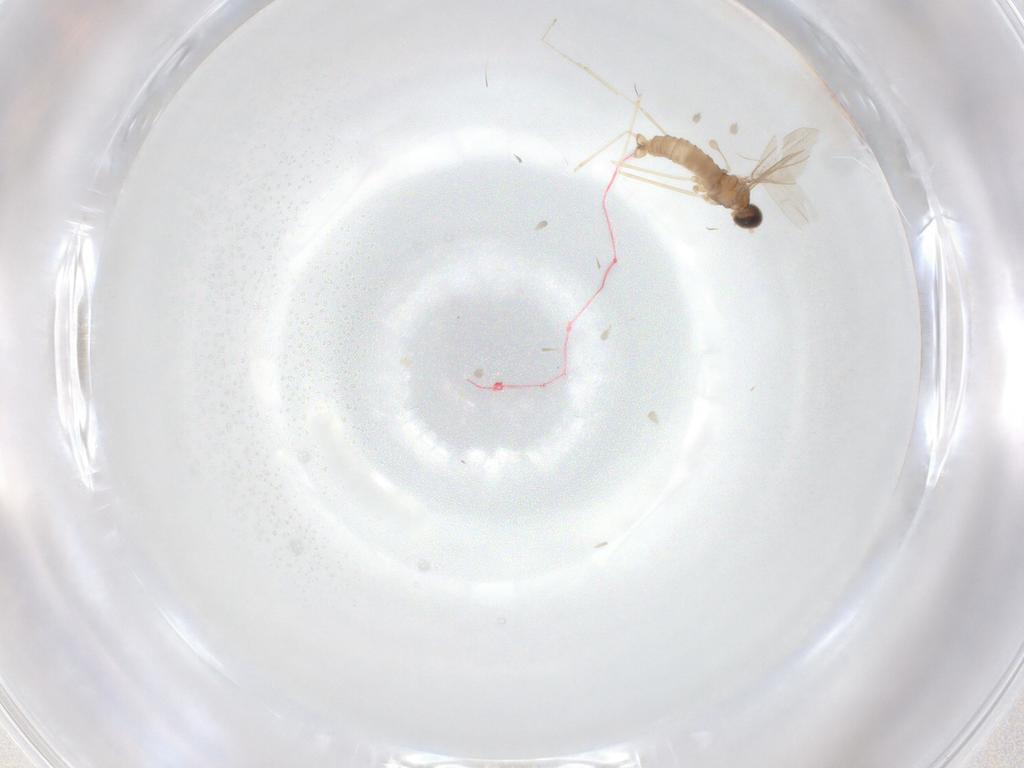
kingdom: Animalia
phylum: Arthropoda
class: Insecta
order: Diptera
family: Cecidomyiidae
